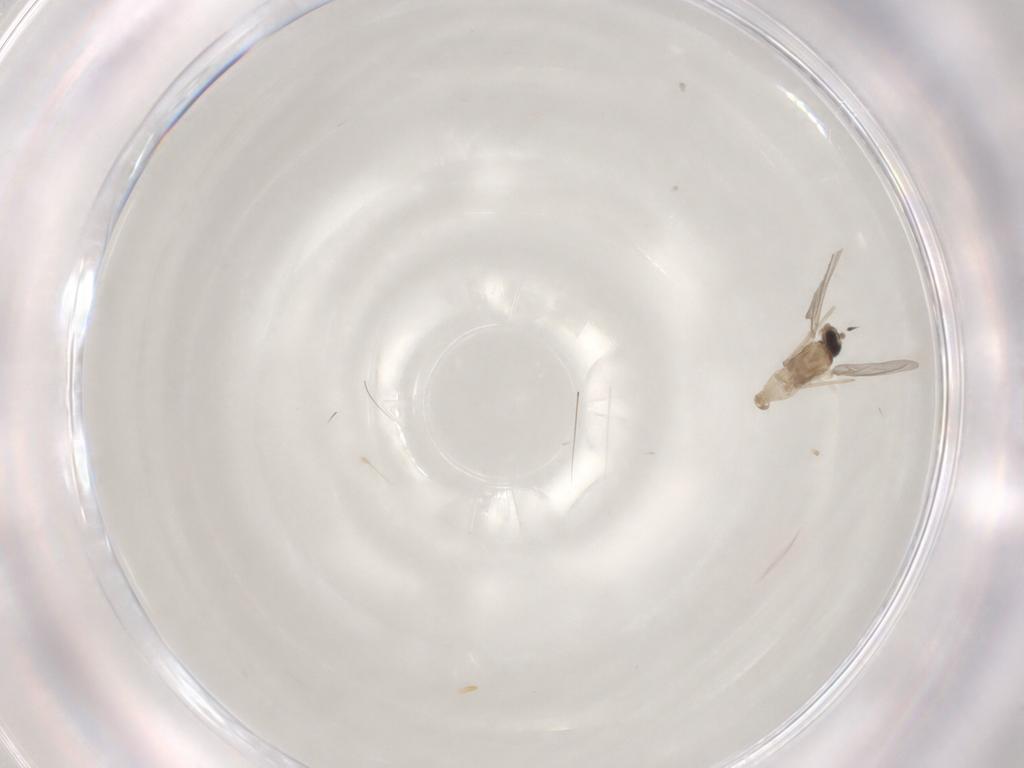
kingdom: Animalia
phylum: Arthropoda
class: Insecta
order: Diptera
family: Cecidomyiidae
